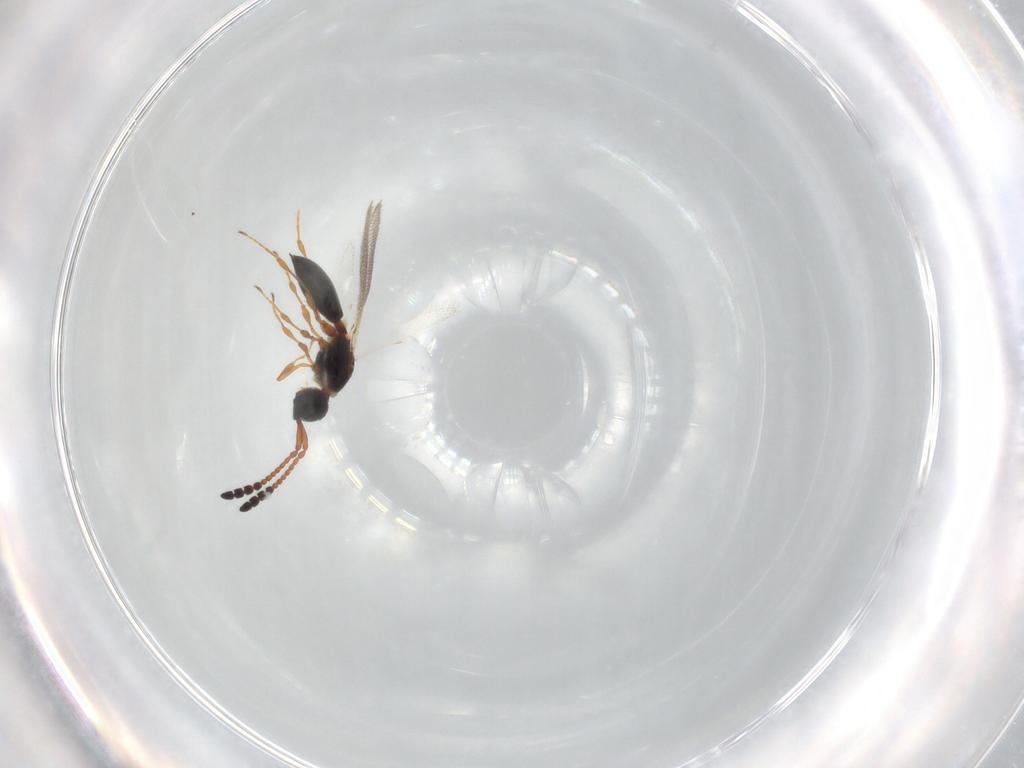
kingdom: Animalia
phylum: Arthropoda
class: Insecta
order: Hymenoptera
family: Diapriidae
